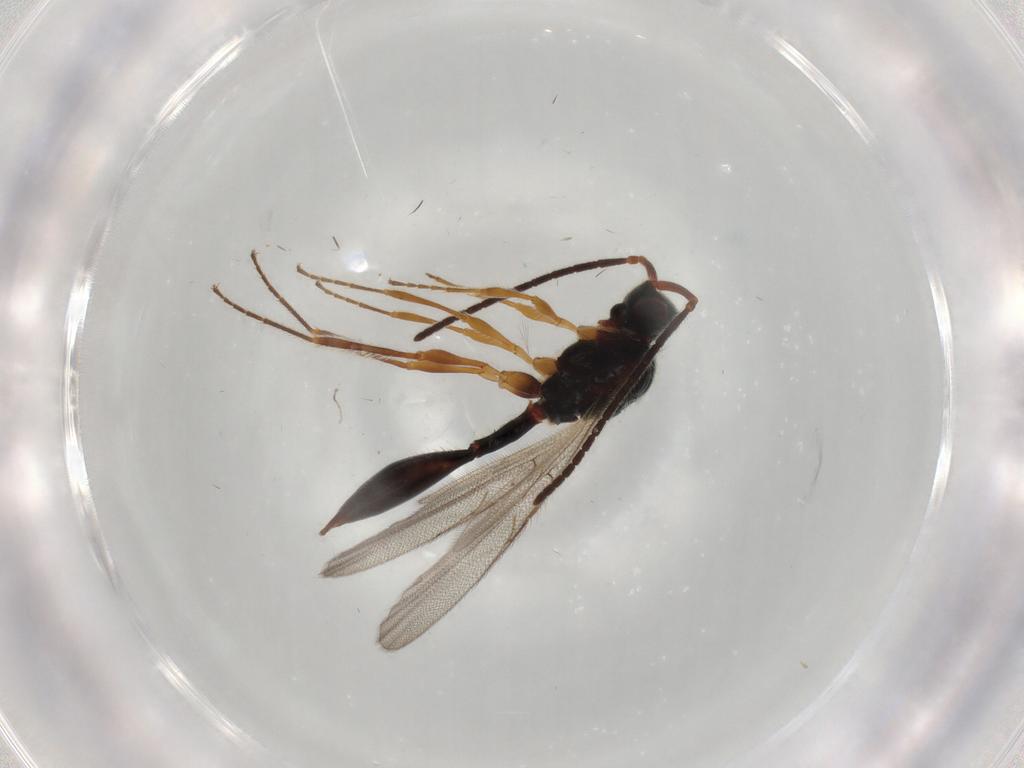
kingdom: Animalia
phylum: Arthropoda
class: Insecta
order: Hymenoptera
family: Diapriidae
